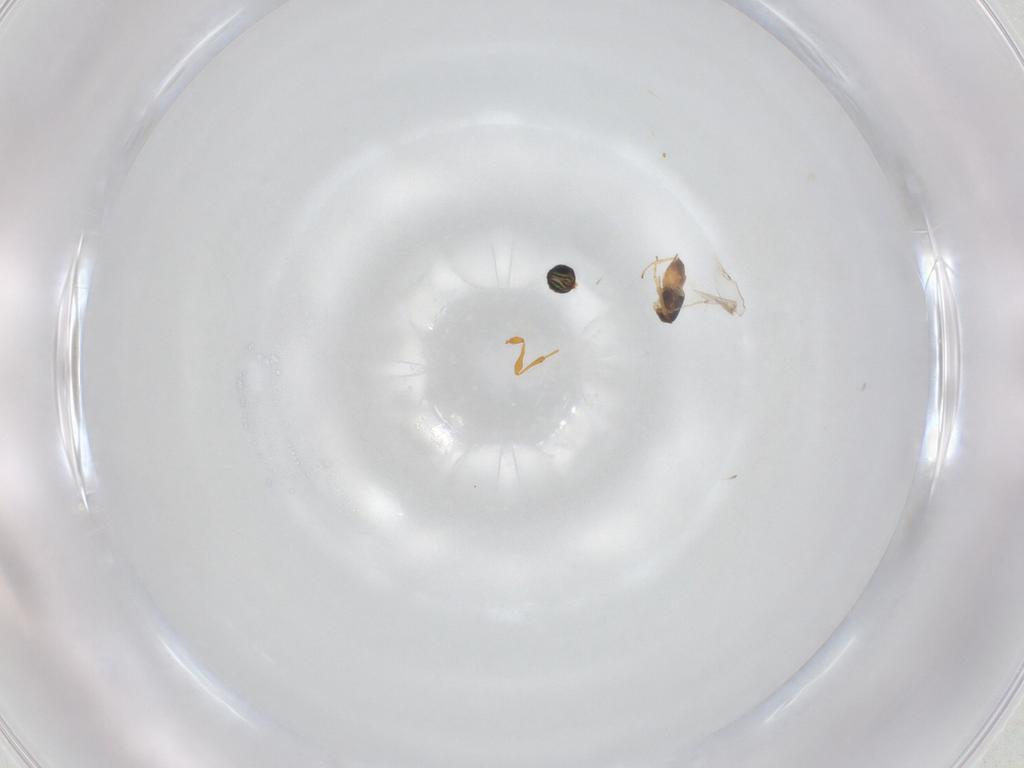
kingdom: Animalia
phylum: Arthropoda
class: Insecta
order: Hymenoptera
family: Platygastridae
